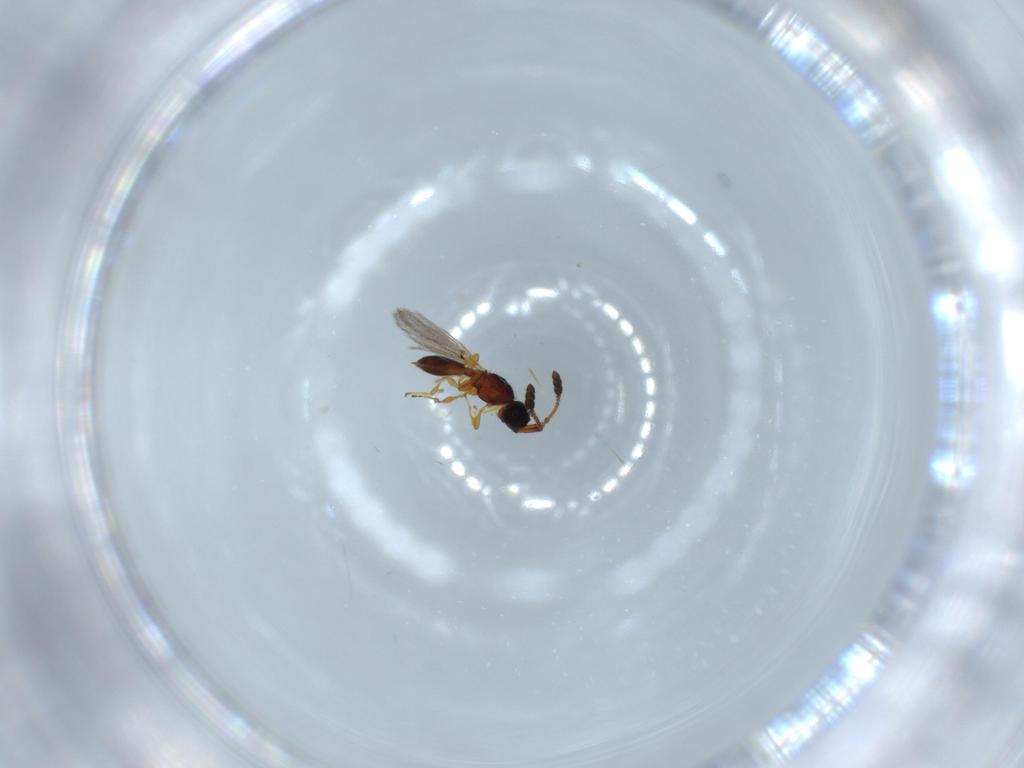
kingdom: Animalia
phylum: Arthropoda
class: Insecta
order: Hymenoptera
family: Diapriidae
